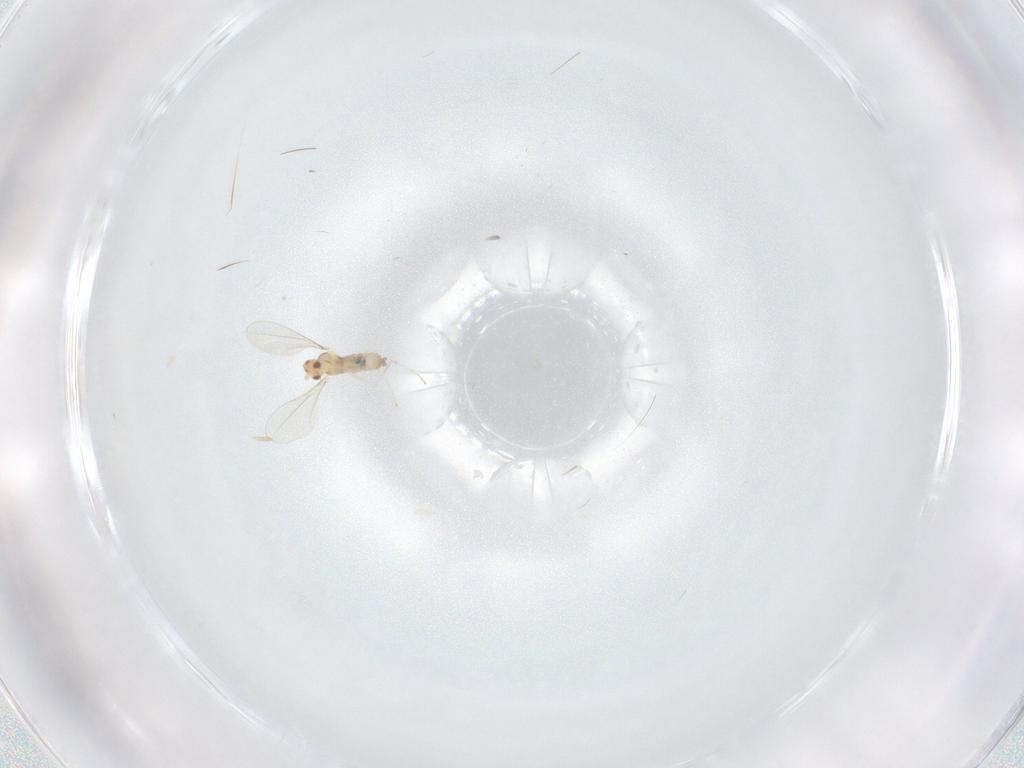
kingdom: Animalia
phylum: Arthropoda
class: Insecta
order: Diptera
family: Cecidomyiidae
